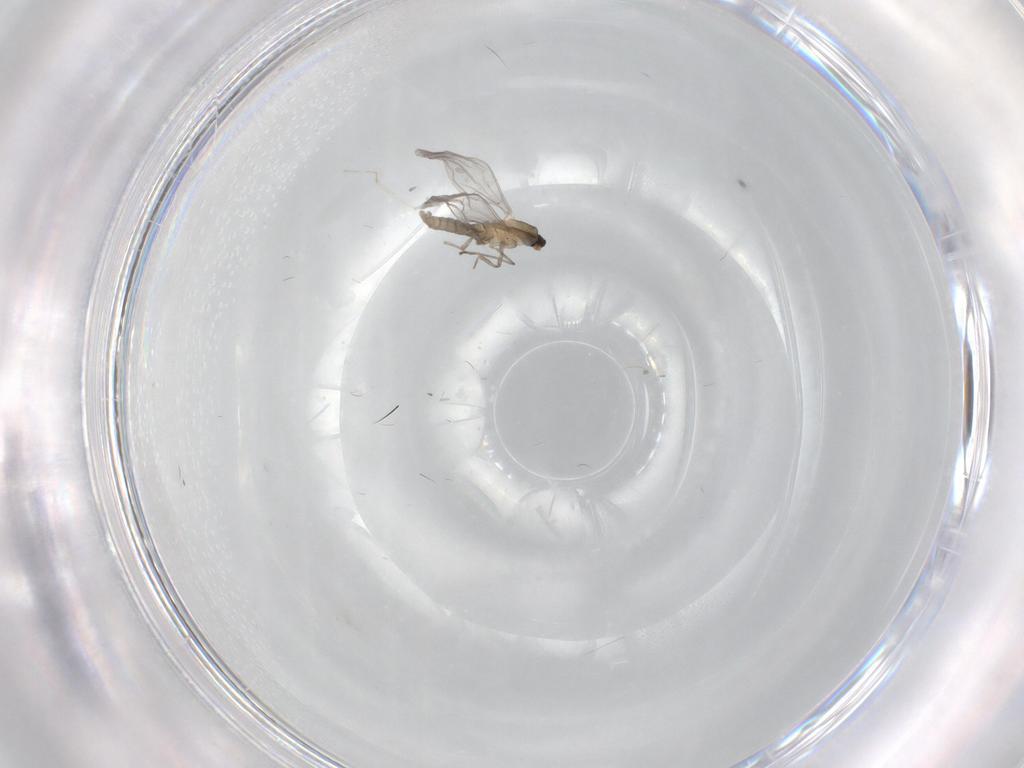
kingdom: Animalia
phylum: Arthropoda
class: Insecta
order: Diptera
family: Cecidomyiidae
